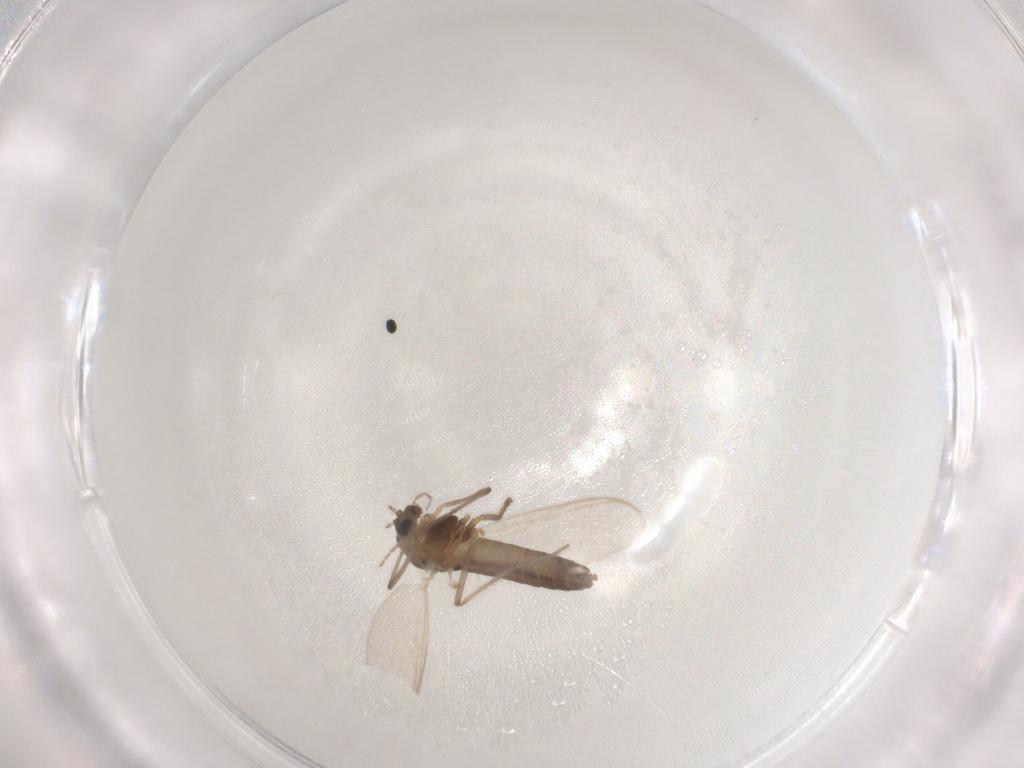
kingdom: Animalia
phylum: Arthropoda
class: Insecta
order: Diptera
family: Chironomidae
